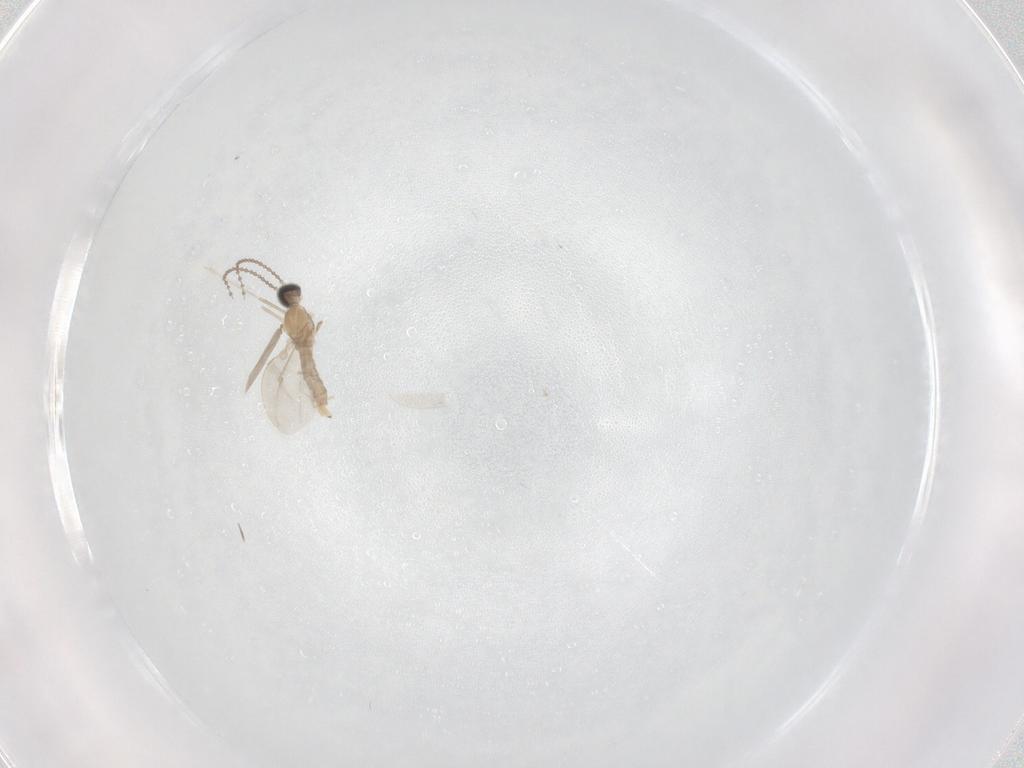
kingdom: Animalia
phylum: Arthropoda
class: Insecta
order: Diptera
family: Cecidomyiidae
